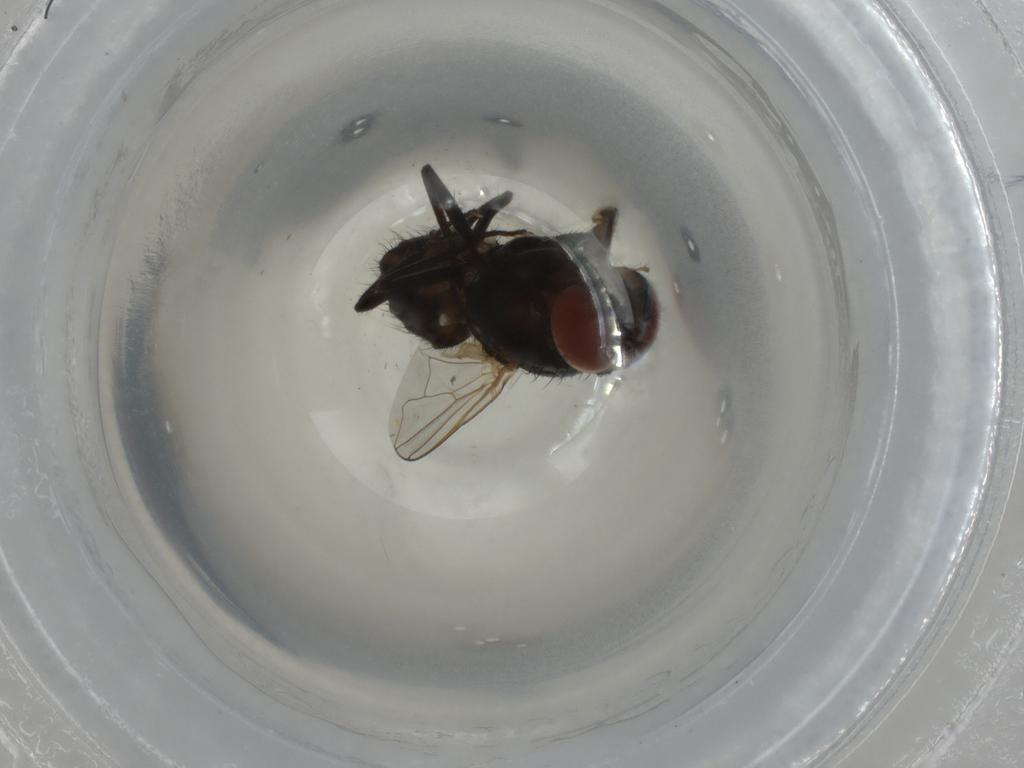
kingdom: Animalia
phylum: Arthropoda
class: Insecta
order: Diptera
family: Muscidae
